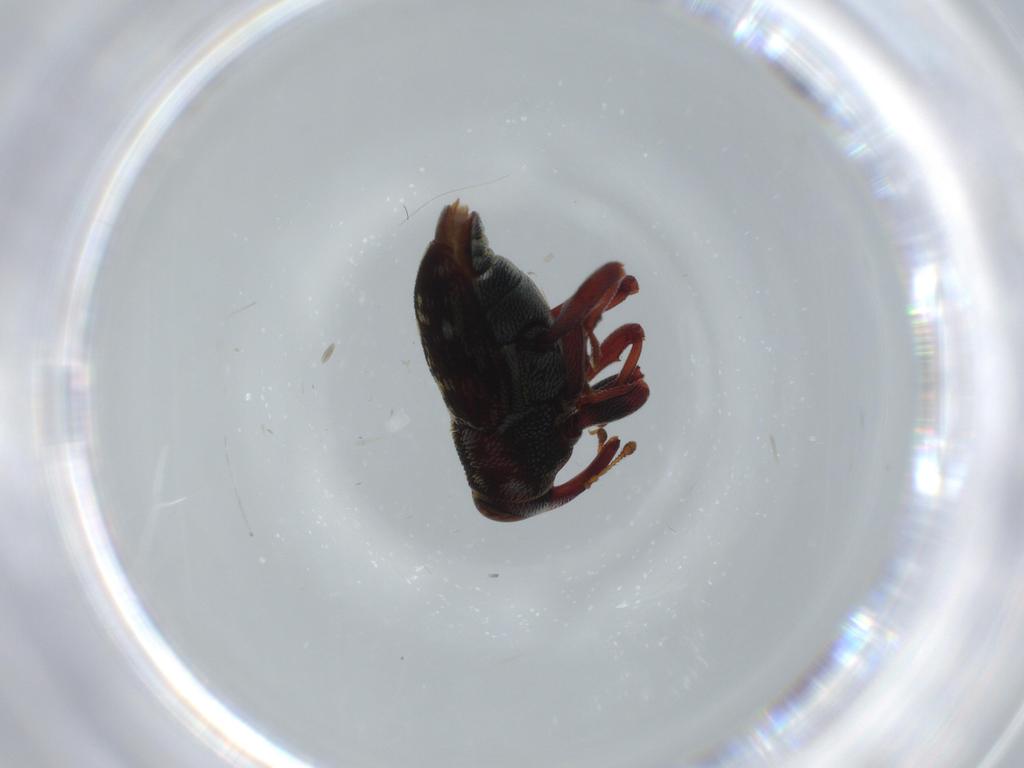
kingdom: Animalia
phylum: Arthropoda
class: Insecta
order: Coleoptera
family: Curculionidae
